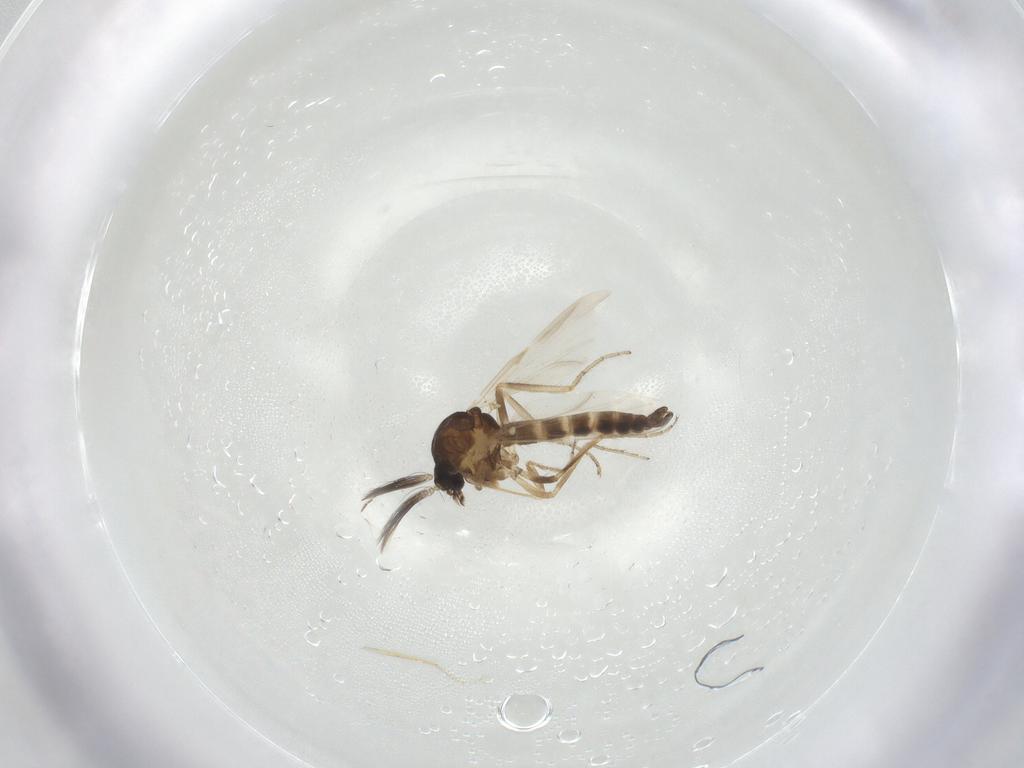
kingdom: Animalia
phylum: Arthropoda
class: Insecta
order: Diptera
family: Ceratopogonidae
